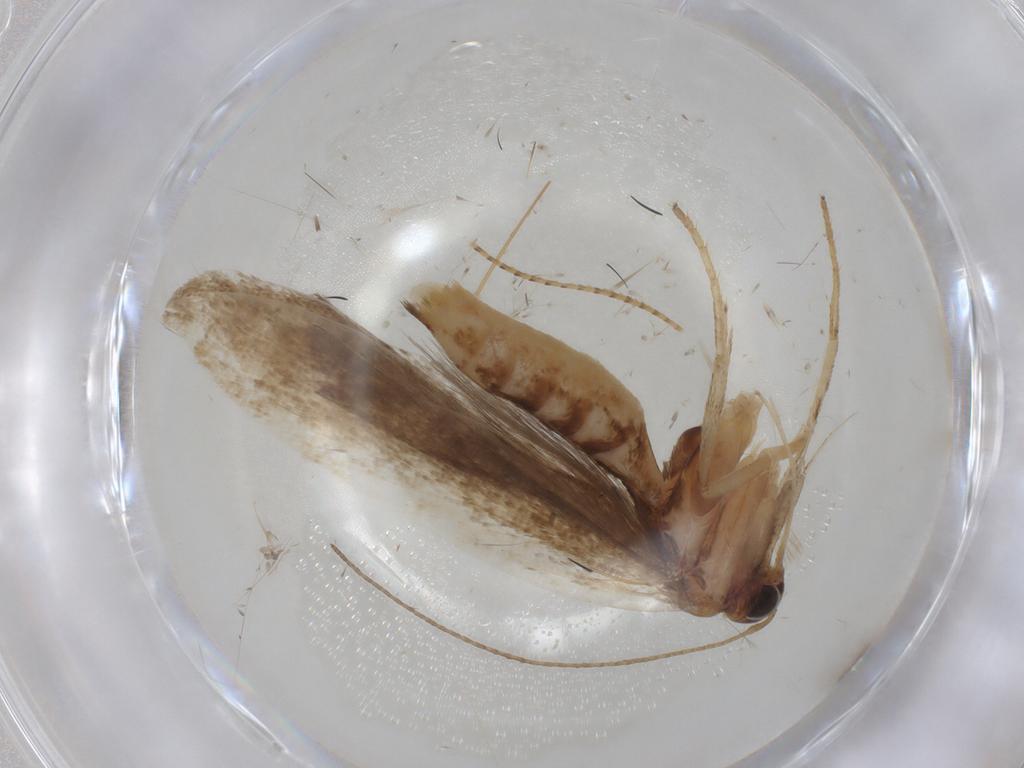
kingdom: Animalia
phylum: Arthropoda
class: Insecta
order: Lepidoptera
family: Gelechiidae
